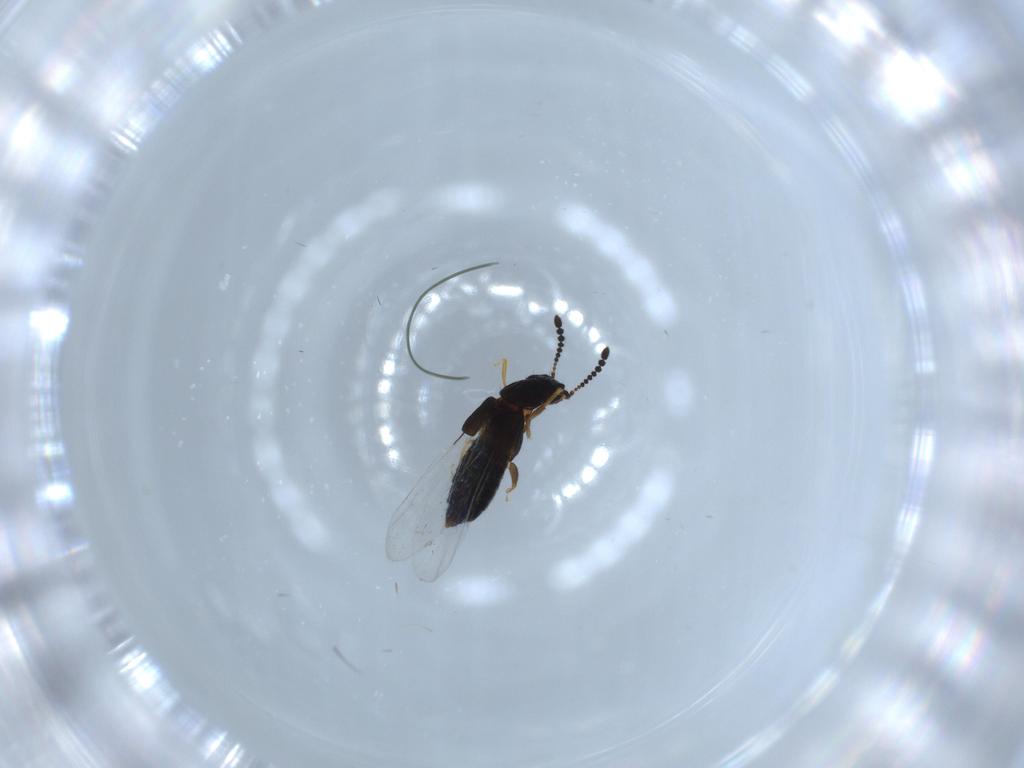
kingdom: Animalia
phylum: Arthropoda
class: Insecta
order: Coleoptera
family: Staphylinidae
